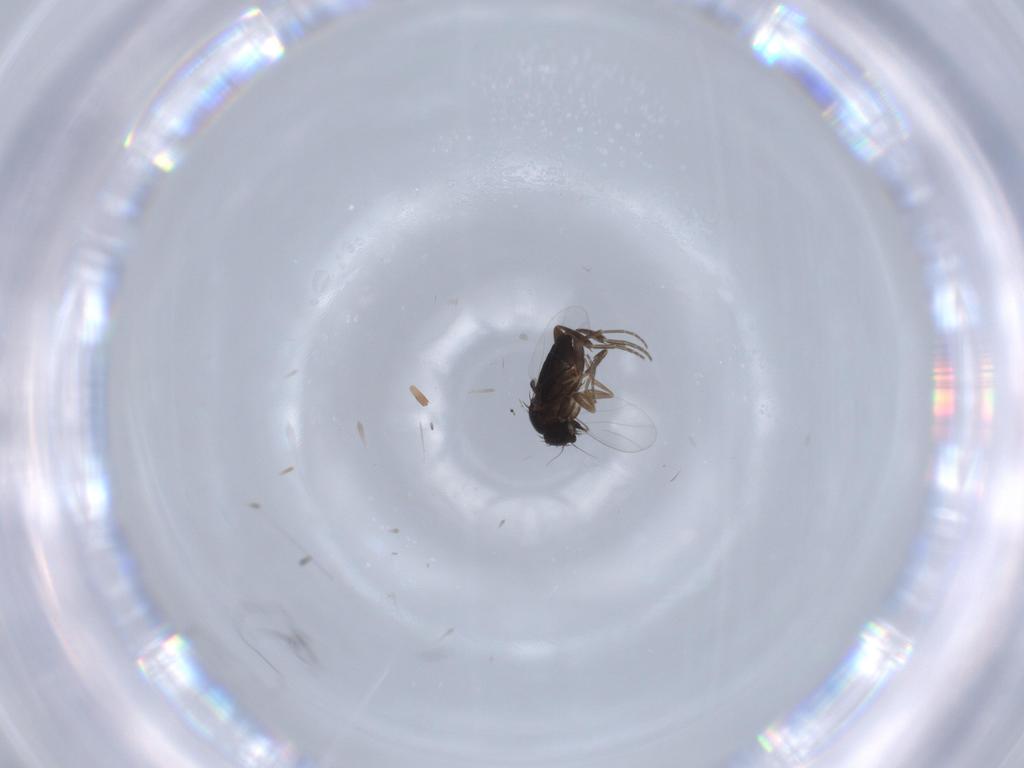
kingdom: Animalia
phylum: Arthropoda
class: Insecta
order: Diptera
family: Phoridae
